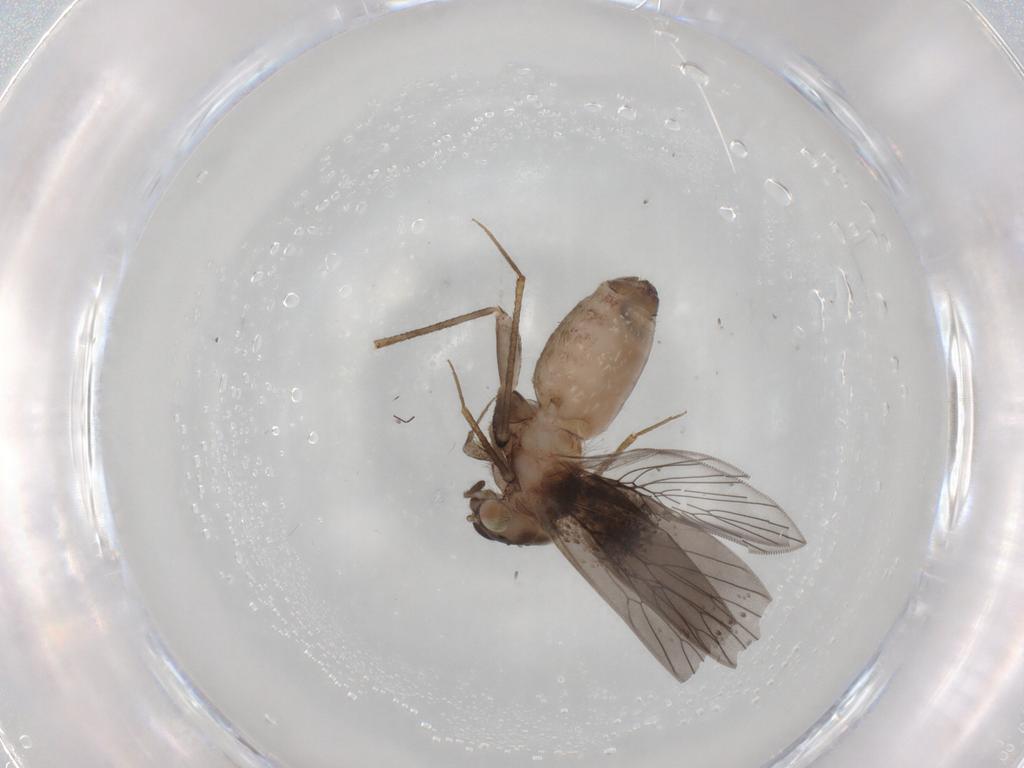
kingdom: Animalia
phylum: Arthropoda
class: Insecta
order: Psocodea
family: Lepidopsocidae
